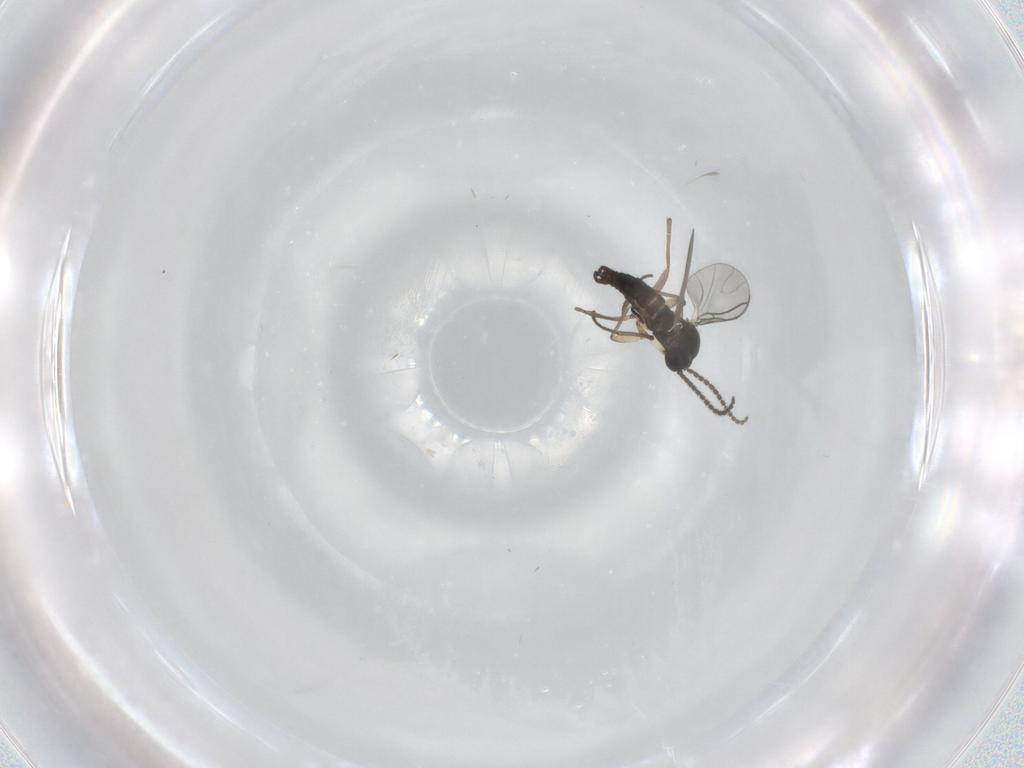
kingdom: Animalia
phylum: Arthropoda
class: Insecta
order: Diptera
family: Sciaridae
